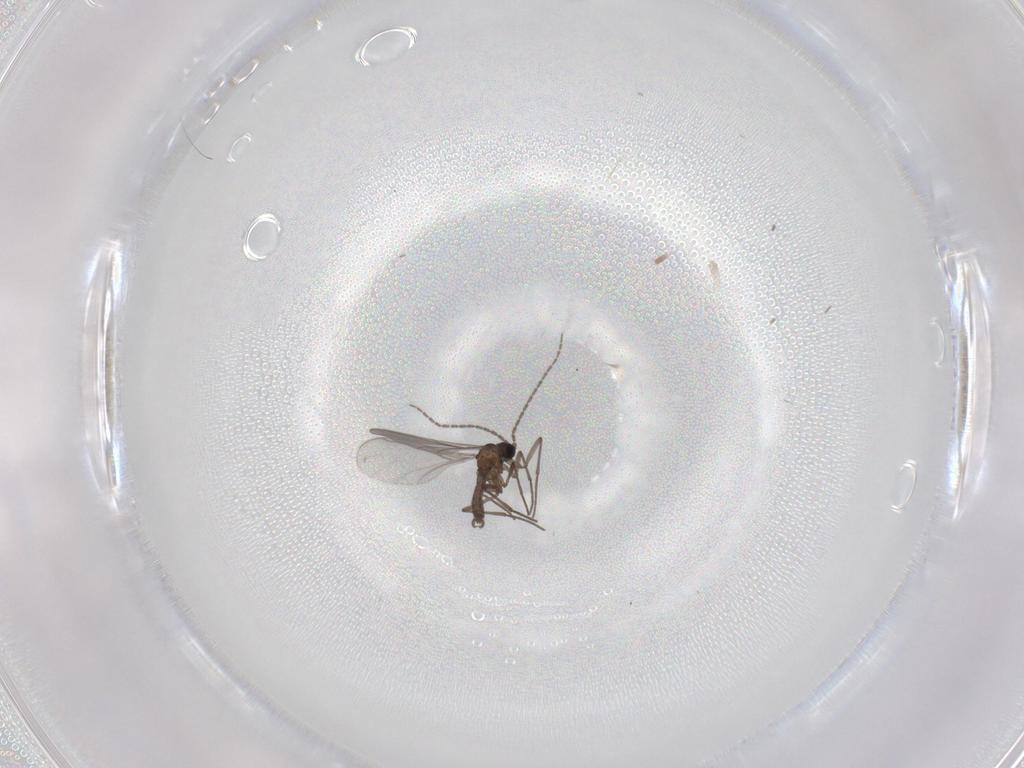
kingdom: Animalia
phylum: Arthropoda
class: Insecta
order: Diptera
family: Sciaridae
